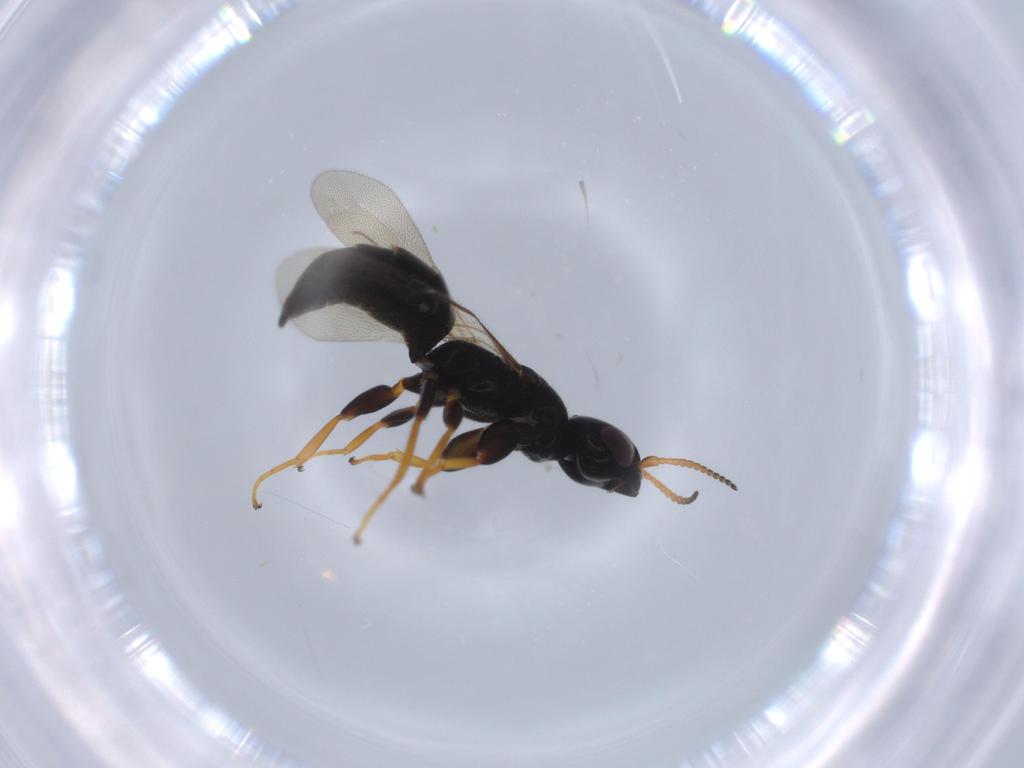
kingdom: Animalia
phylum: Arthropoda
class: Insecta
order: Hymenoptera
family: Bethylidae
